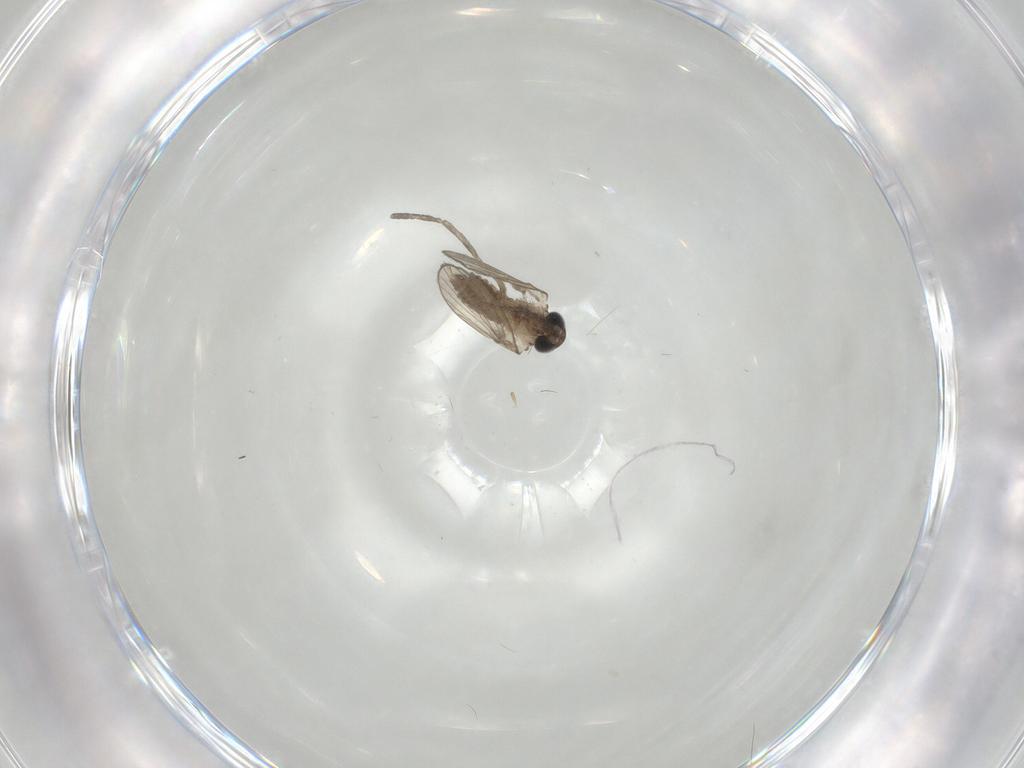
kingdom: Animalia
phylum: Arthropoda
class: Insecta
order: Diptera
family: Psychodidae
